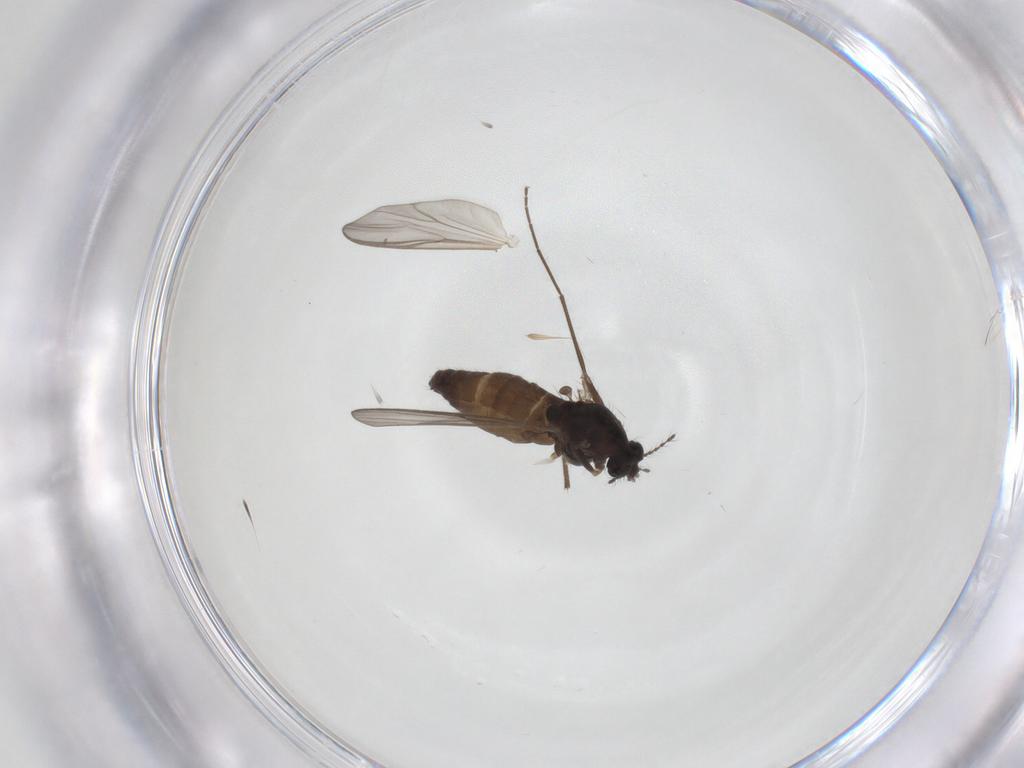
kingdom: Animalia
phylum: Arthropoda
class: Insecta
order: Diptera
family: Chironomidae
